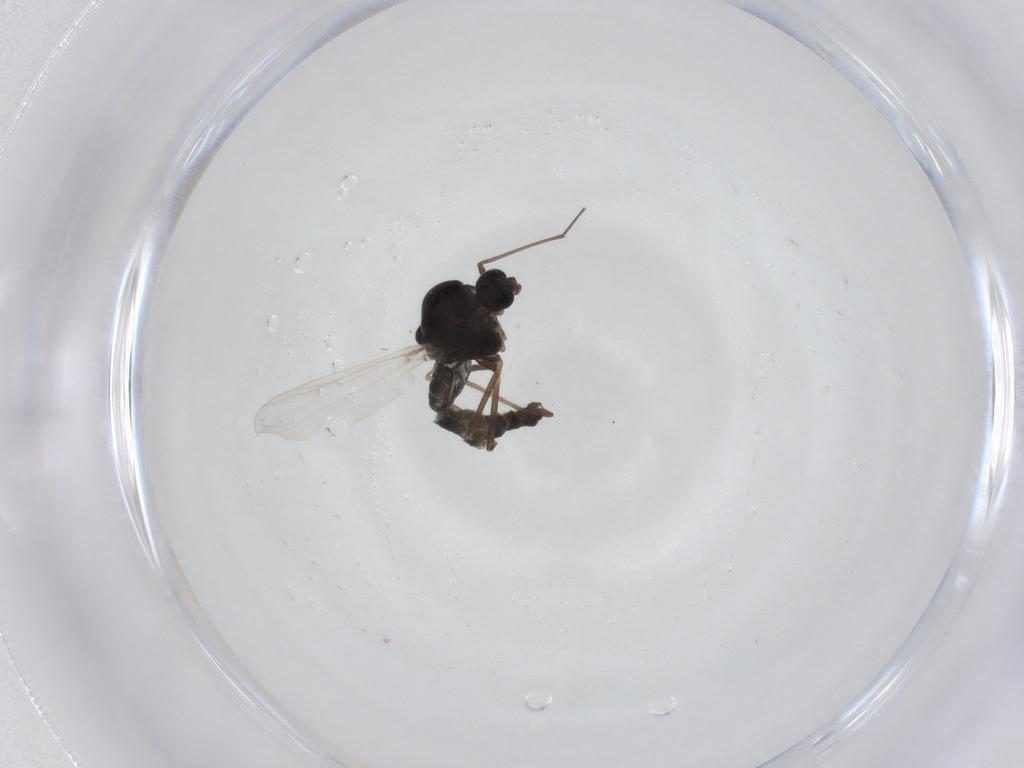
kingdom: Animalia
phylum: Arthropoda
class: Insecta
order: Diptera
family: Chironomidae
